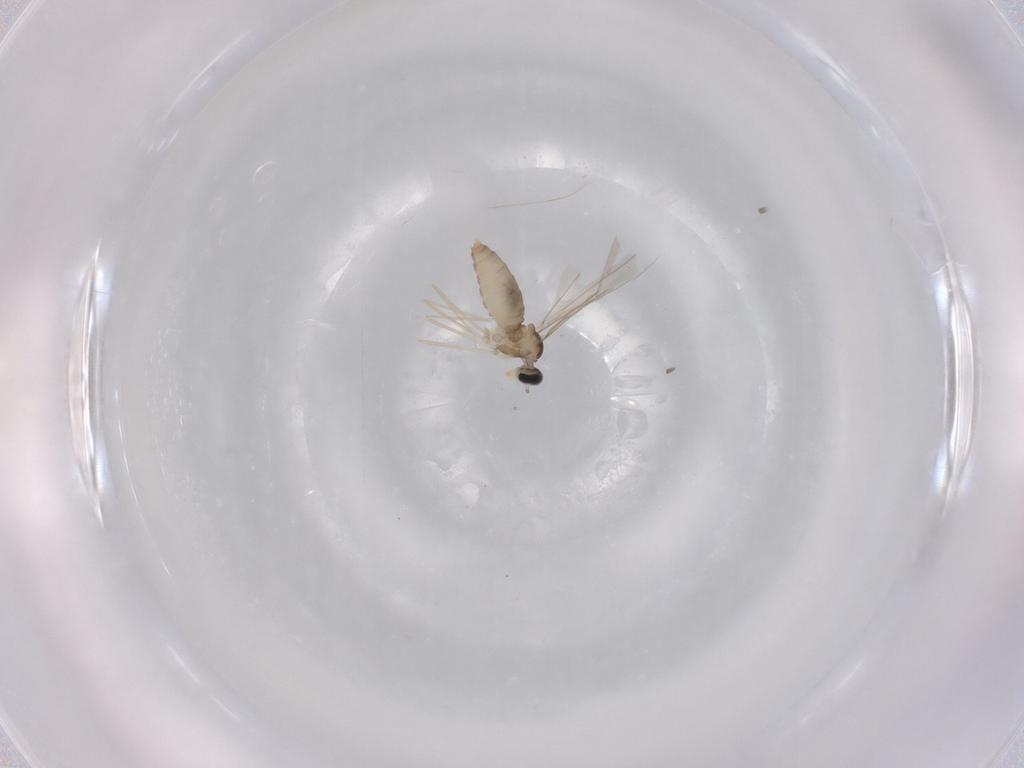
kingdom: Animalia
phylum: Arthropoda
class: Insecta
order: Diptera
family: Cecidomyiidae
